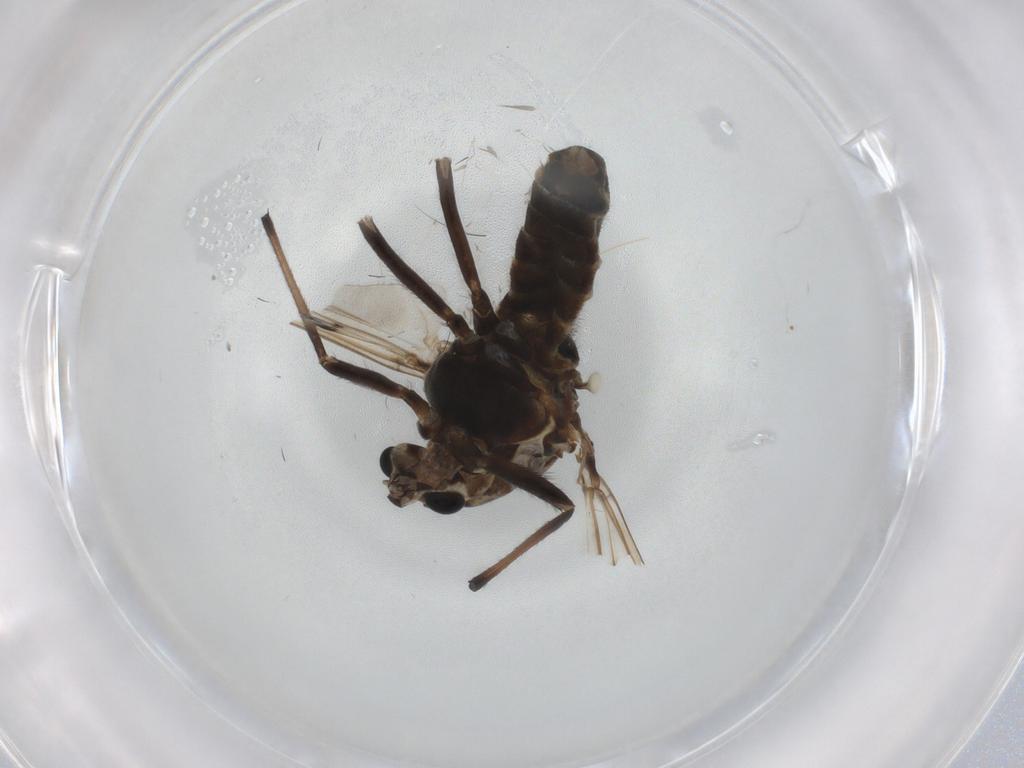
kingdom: Animalia
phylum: Arthropoda
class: Insecta
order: Diptera
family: Chironomidae
